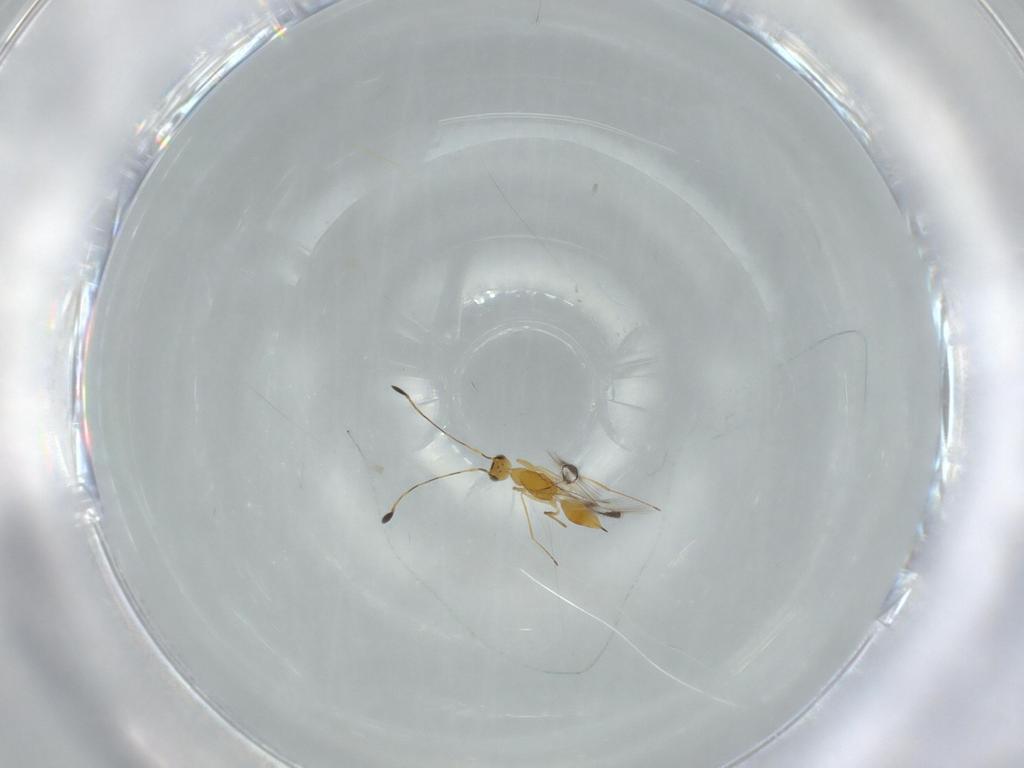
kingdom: Animalia
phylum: Arthropoda
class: Insecta
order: Hymenoptera
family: Mymaridae
